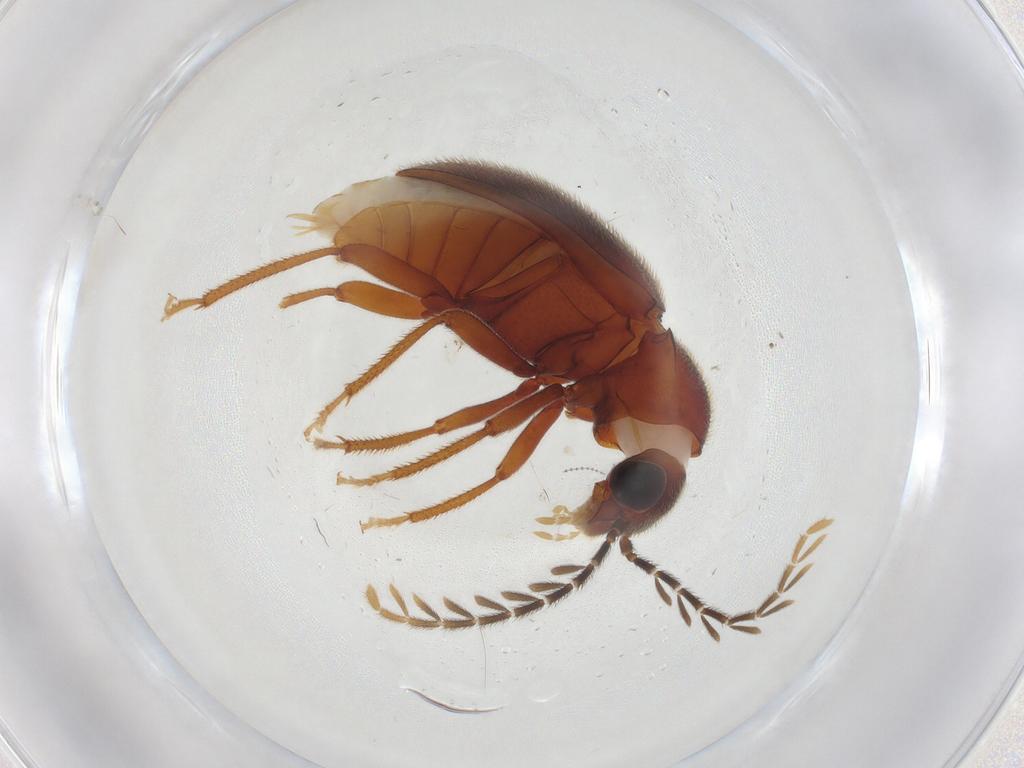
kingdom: Animalia
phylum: Arthropoda
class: Insecta
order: Coleoptera
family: Ptilodactylidae
